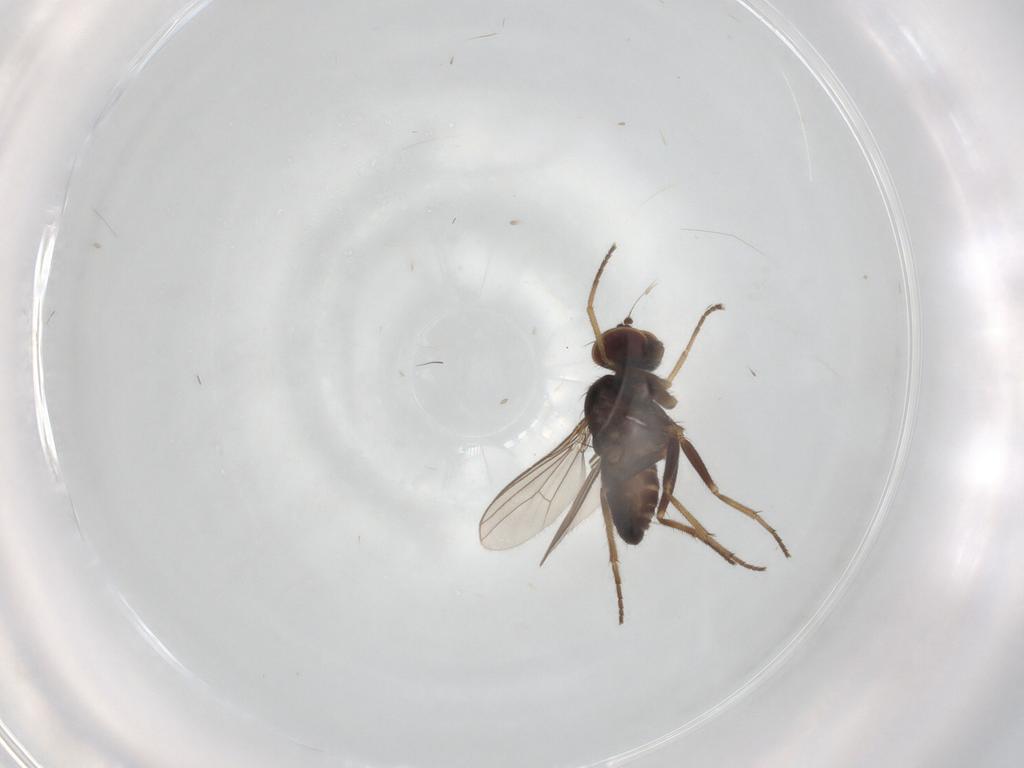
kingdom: Animalia
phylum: Arthropoda
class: Insecta
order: Diptera
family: Dolichopodidae
